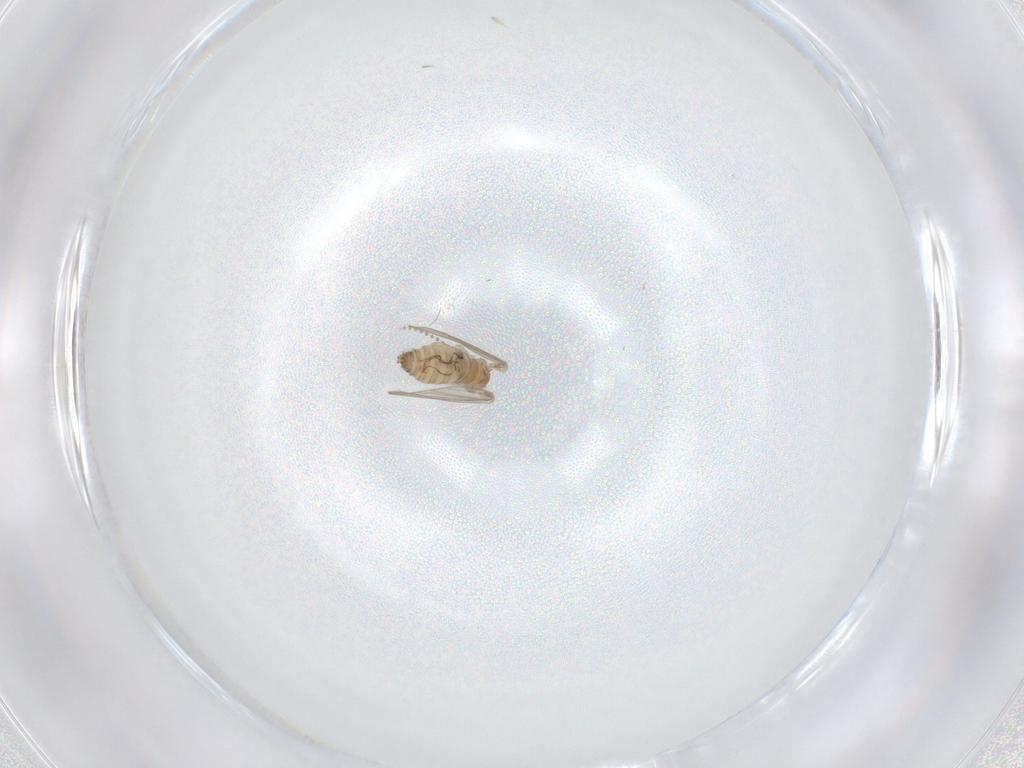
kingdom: Animalia
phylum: Arthropoda
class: Insecta
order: Diptera
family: Psychodidae
